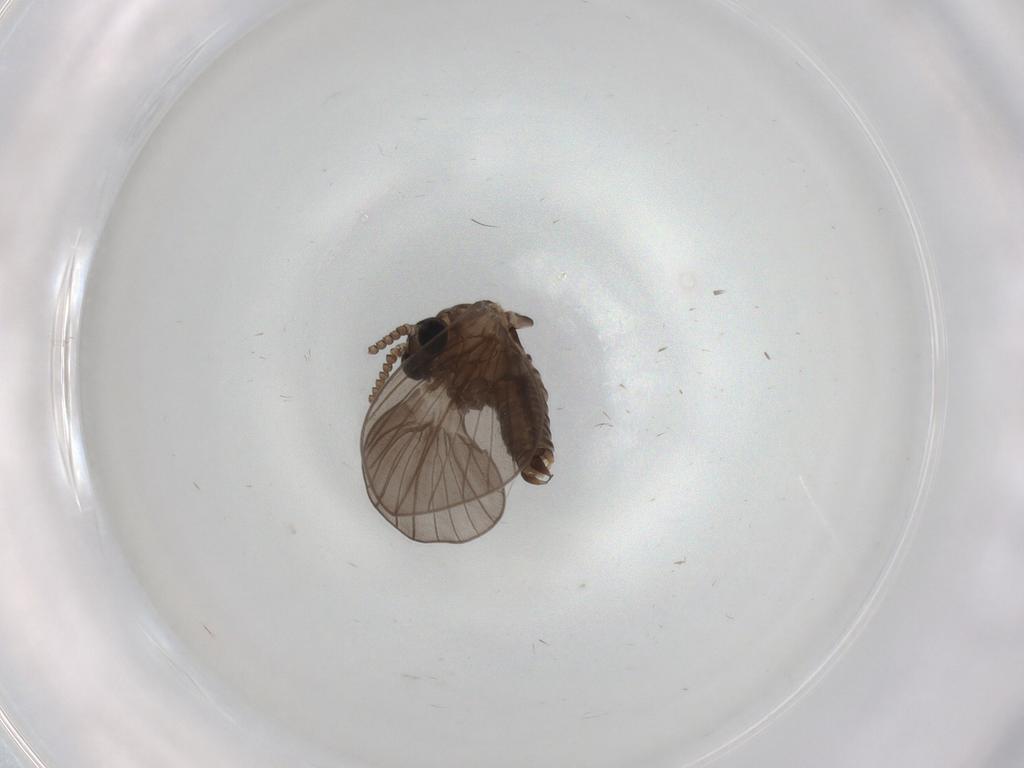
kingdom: Animalia
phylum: Arthropoda
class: Insecta
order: Diptera
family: Psychodidae
